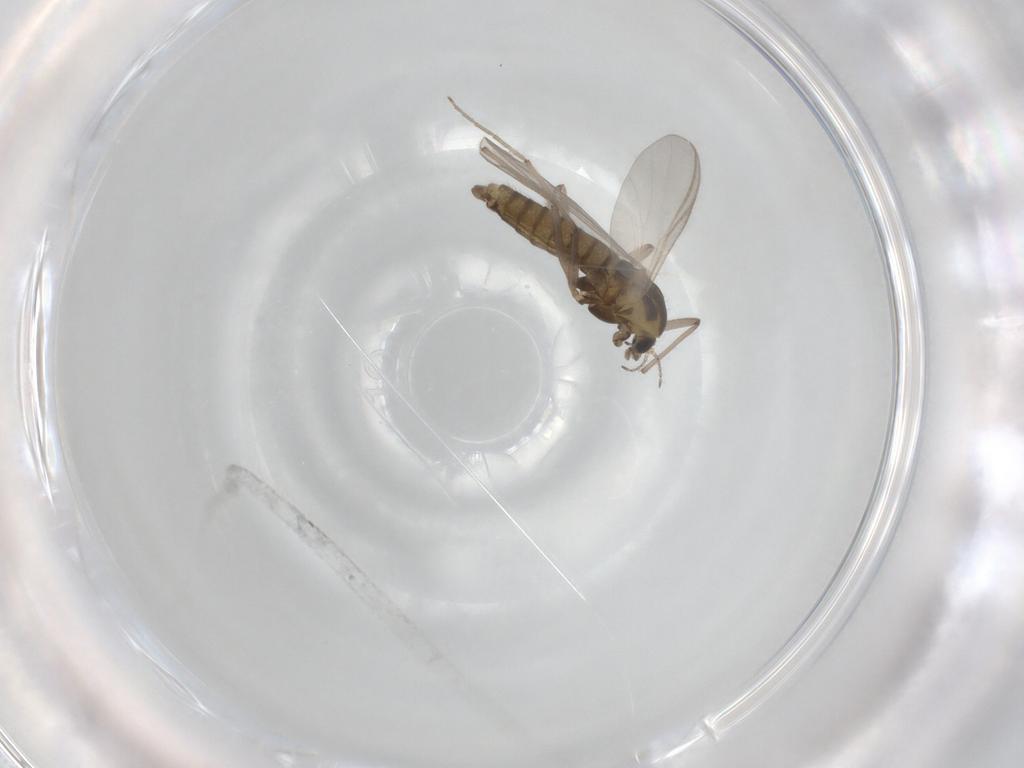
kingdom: Animalia
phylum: Arthropoda
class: Insecta
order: Diptera
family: Chironomidae
